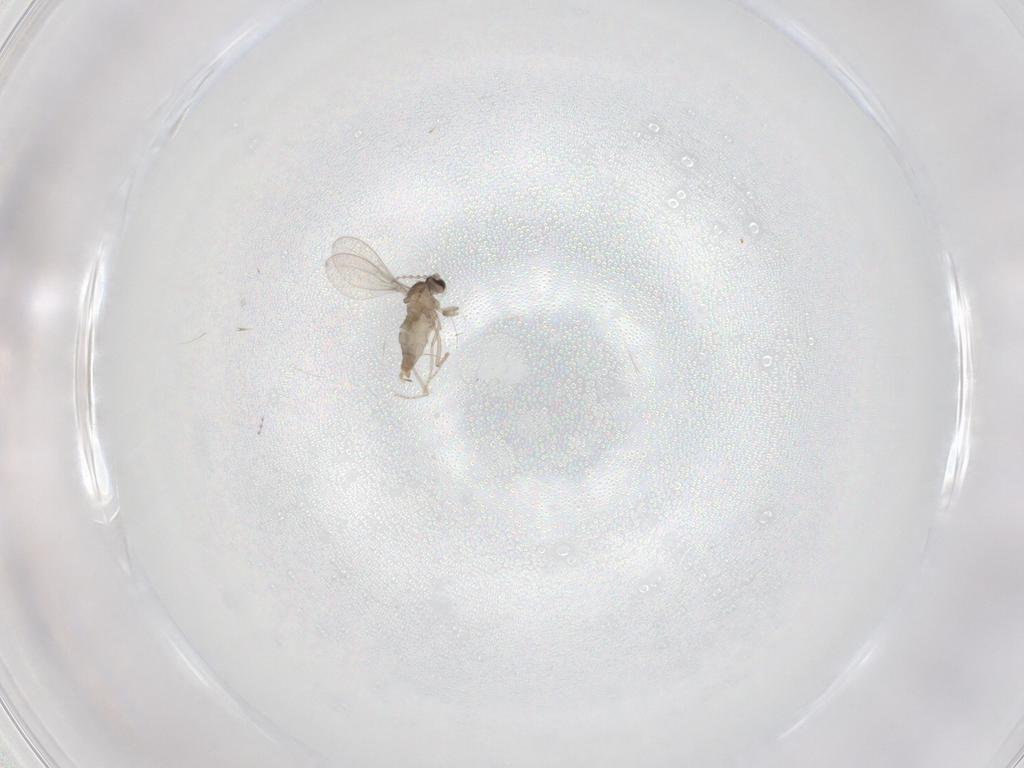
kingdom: Animalia
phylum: Arthropoda
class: Insecta
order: Diptera
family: Cecidomyiidae
